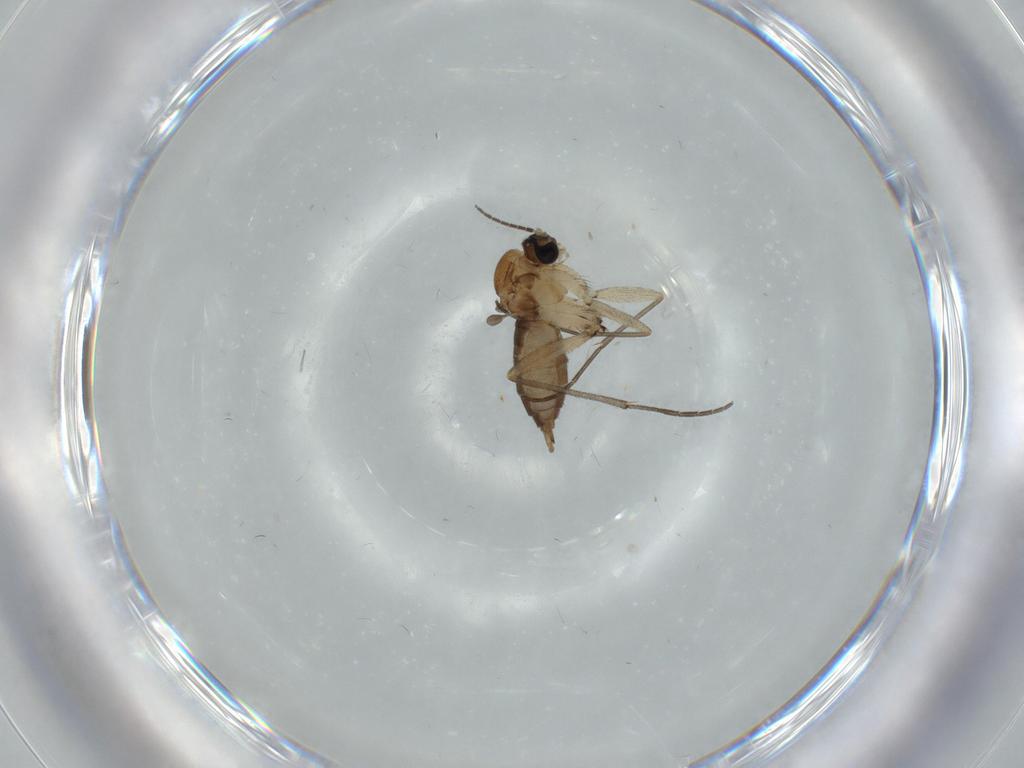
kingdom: Animalia
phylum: Arthropoda
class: Insecta
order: Diptera
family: Sciaridae
